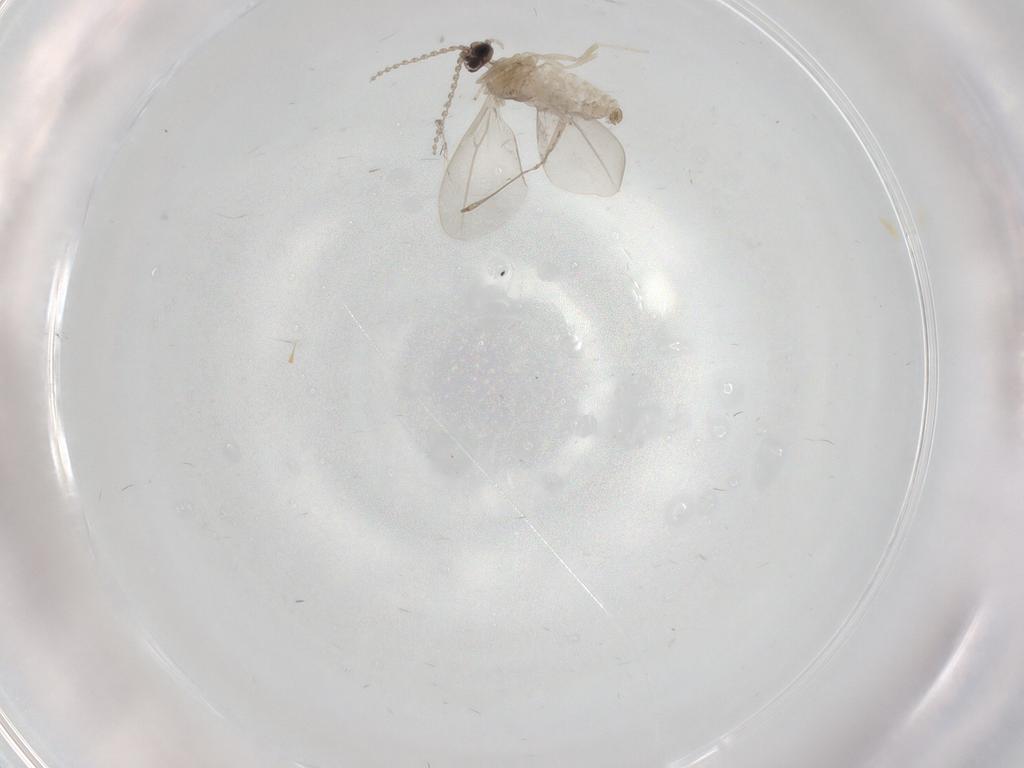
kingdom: Animalia
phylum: Arthropoda
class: Insecta
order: Diptera
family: Cecidomyiidae
